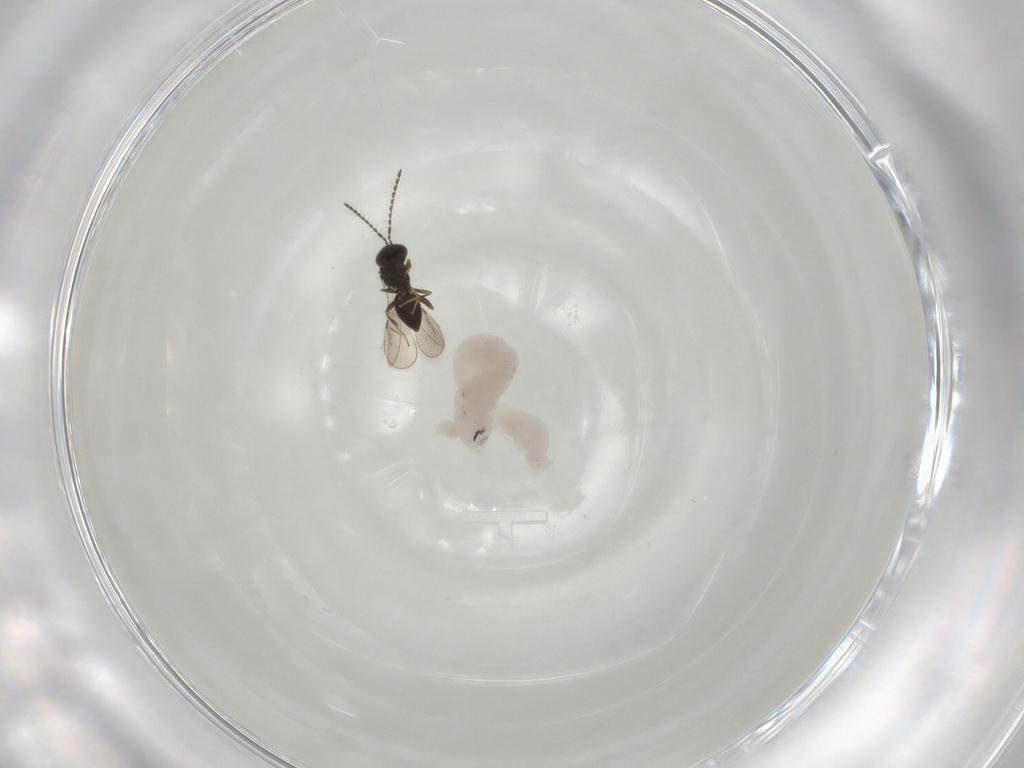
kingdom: Animalia
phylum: Arthropoda
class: Insecta
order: Hymenoptera
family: Ceraphronidae
